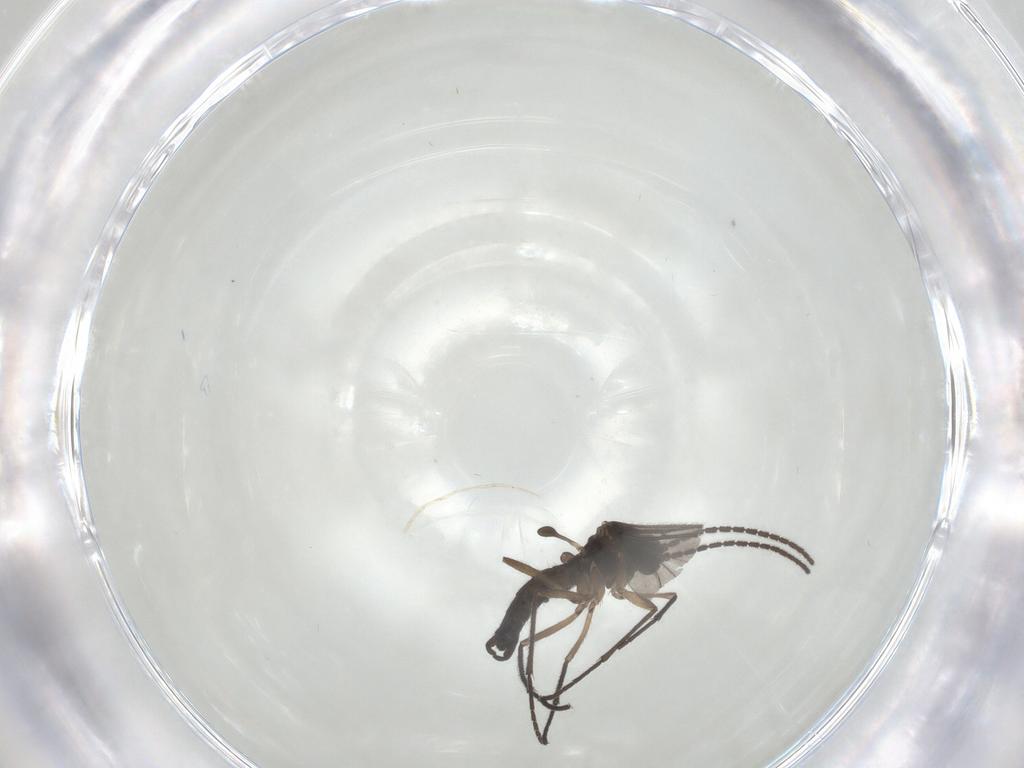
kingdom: Animalia
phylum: Arthropoda
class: Insecta
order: Diptera
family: Sciaridae
